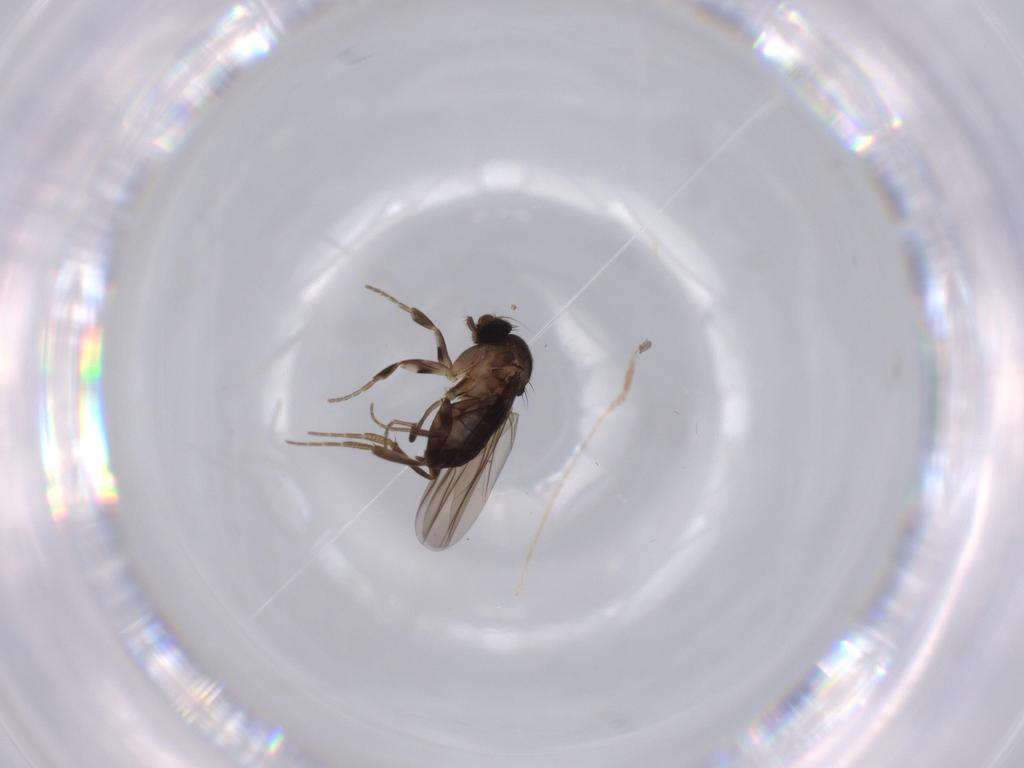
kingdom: Animalia
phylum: Arthropoda
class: Insecta
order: Diptera
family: Phoridae
